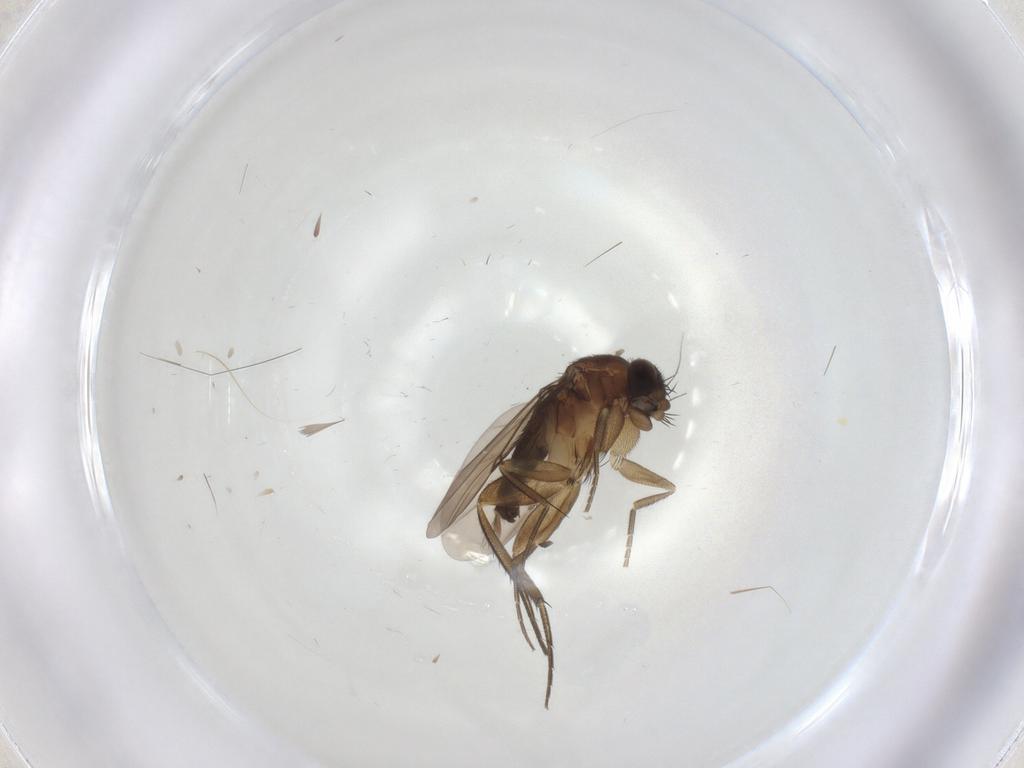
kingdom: Animalia
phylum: Arthropoda
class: Insecta
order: Diptera
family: Phoridae
